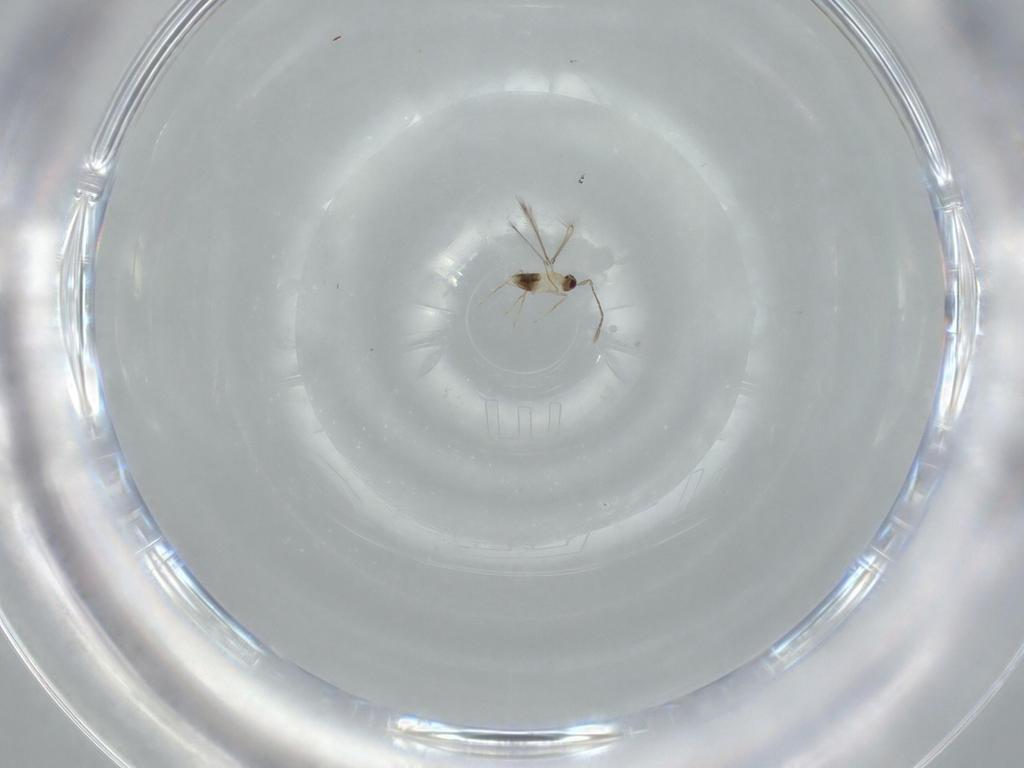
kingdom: Animalia
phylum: Arthropoda
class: Insecta
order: Hymenoptera
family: Mymaridae
